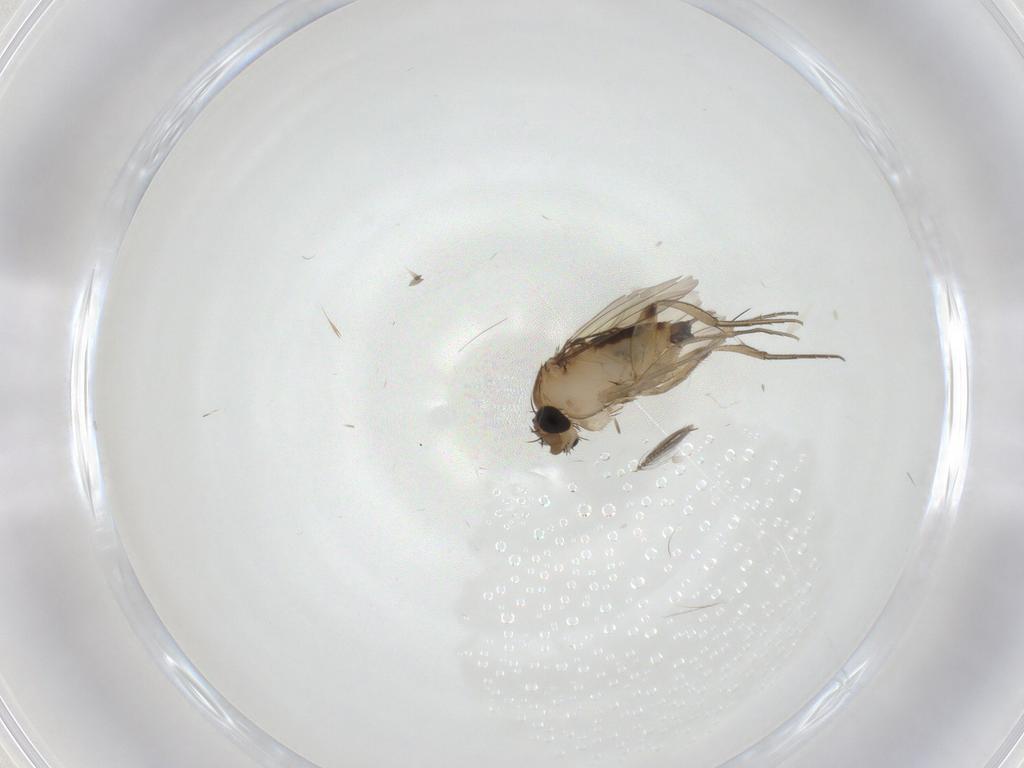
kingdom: Animalia
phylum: Arthropoda
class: Insecta
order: Diptera
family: Phoridae
